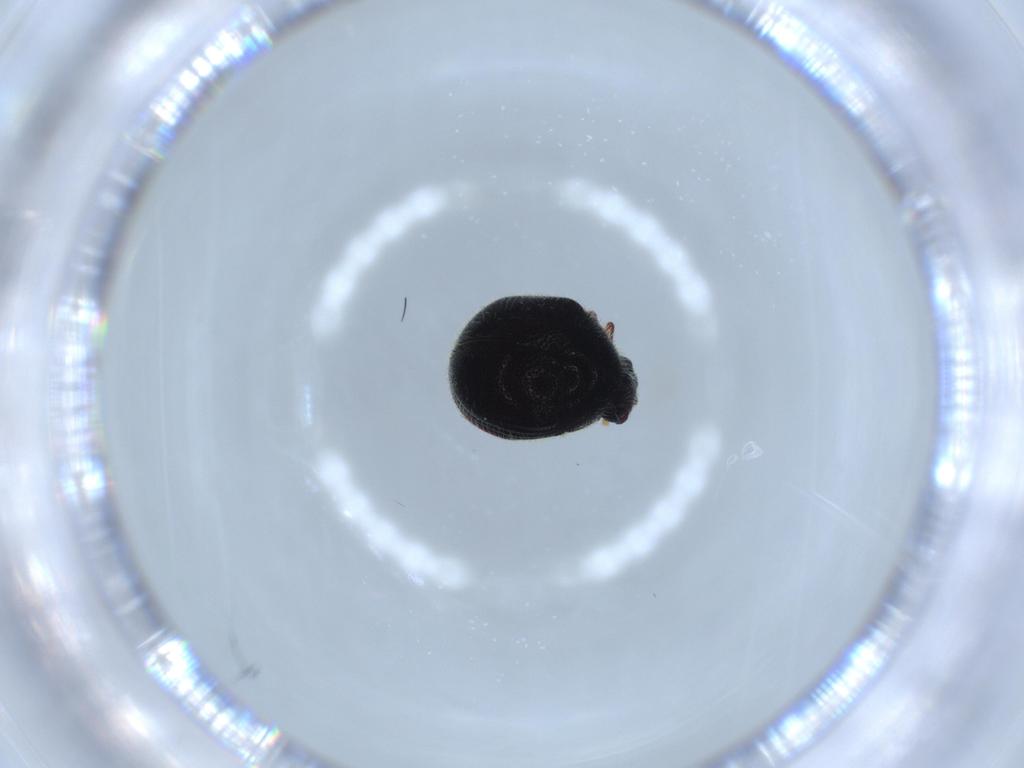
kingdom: Animalia
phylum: Arthropoda
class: Insecta
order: Coleoptera
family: Ptinidae
